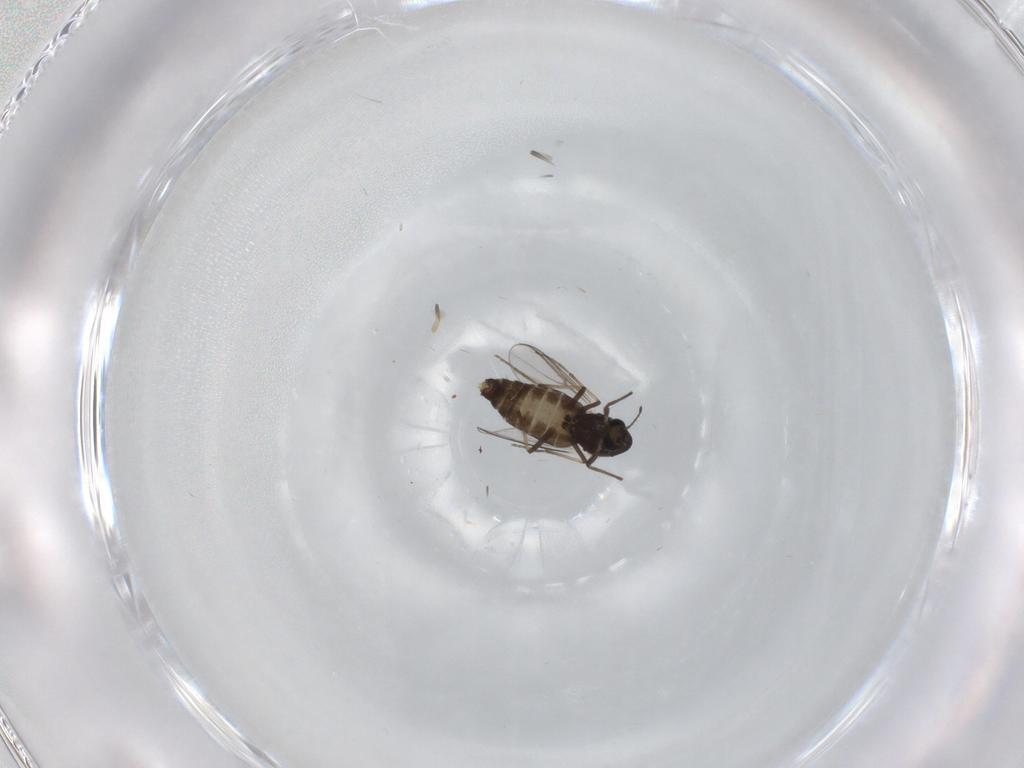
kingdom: Animalia
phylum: Arthropoda
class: Insecta
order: Diptera
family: Chironomidae
